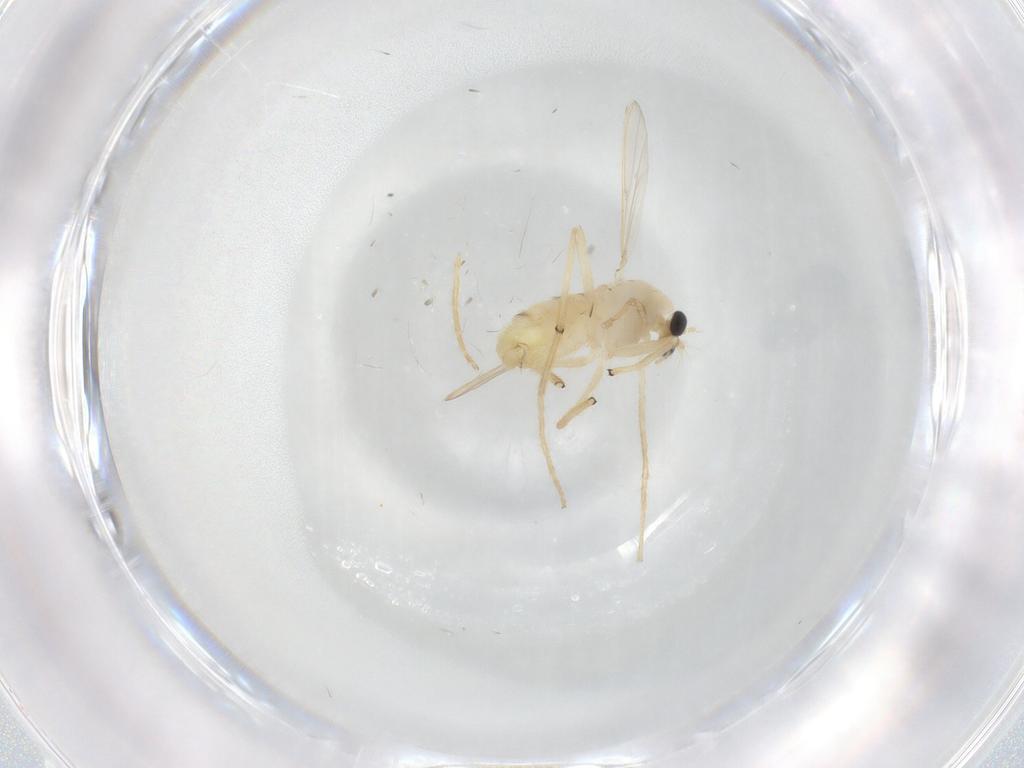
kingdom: Animalia
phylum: Arthropoda
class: Insecta
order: Diptera
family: Chironomidae
